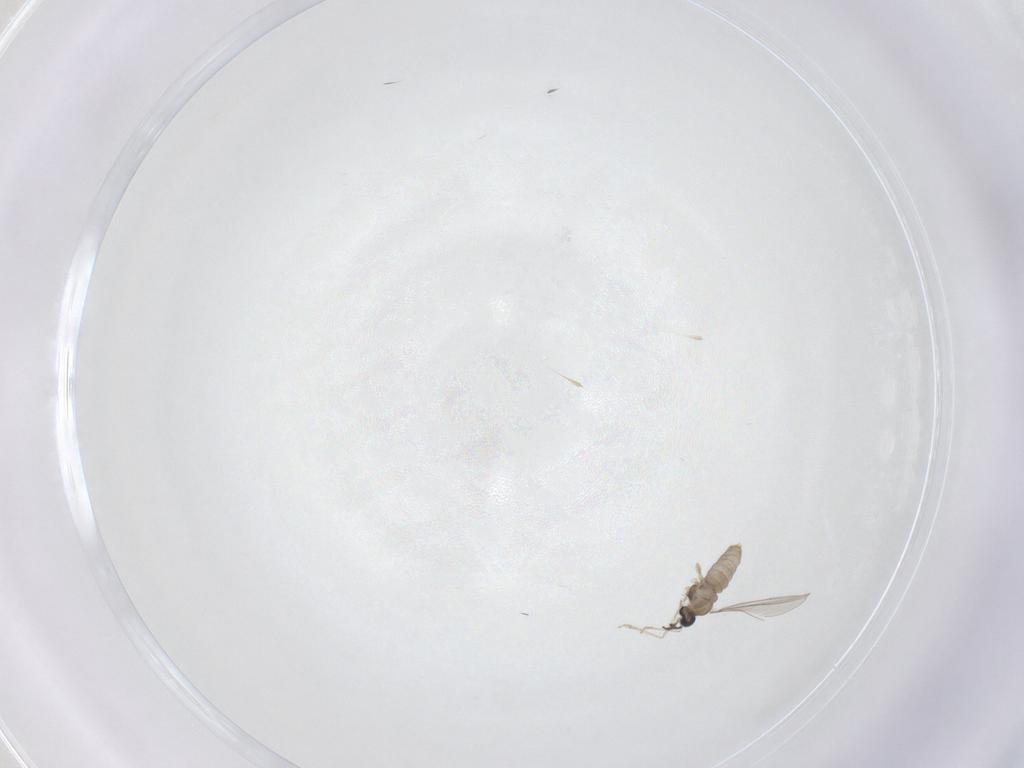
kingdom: Animalia
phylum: Arthropoda
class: Insecta
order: Diptera
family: Cecidomyiidae
